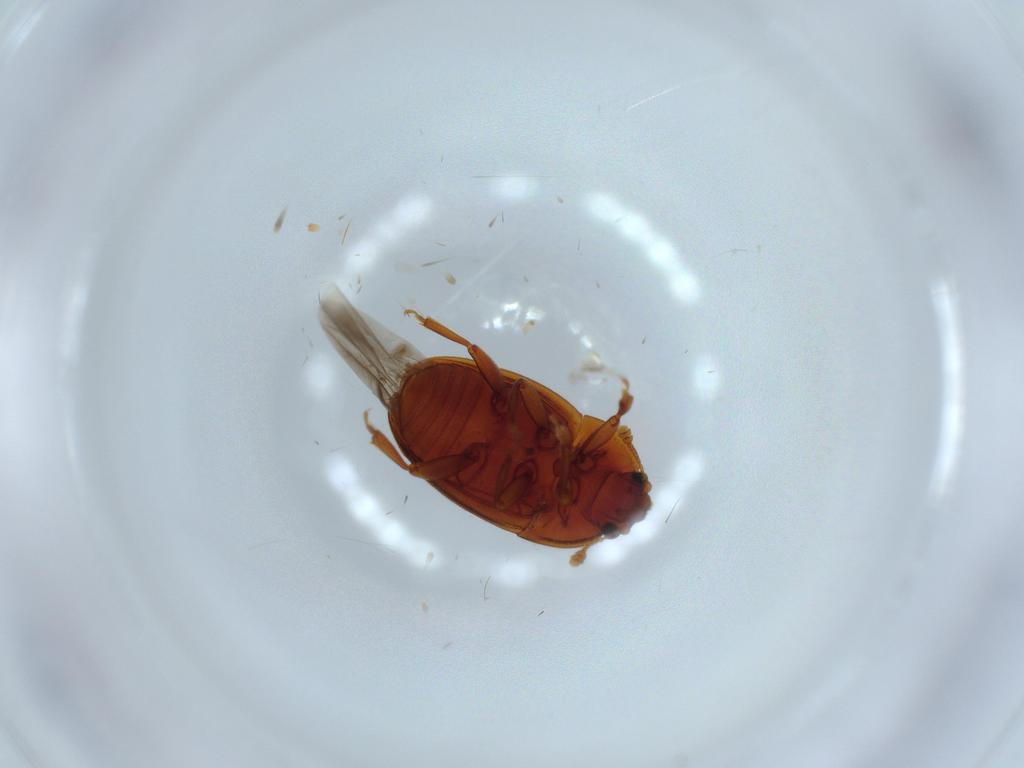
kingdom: Animalia
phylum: Arthropoda
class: Insecta
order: Coleoptera
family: Nitidulidae
